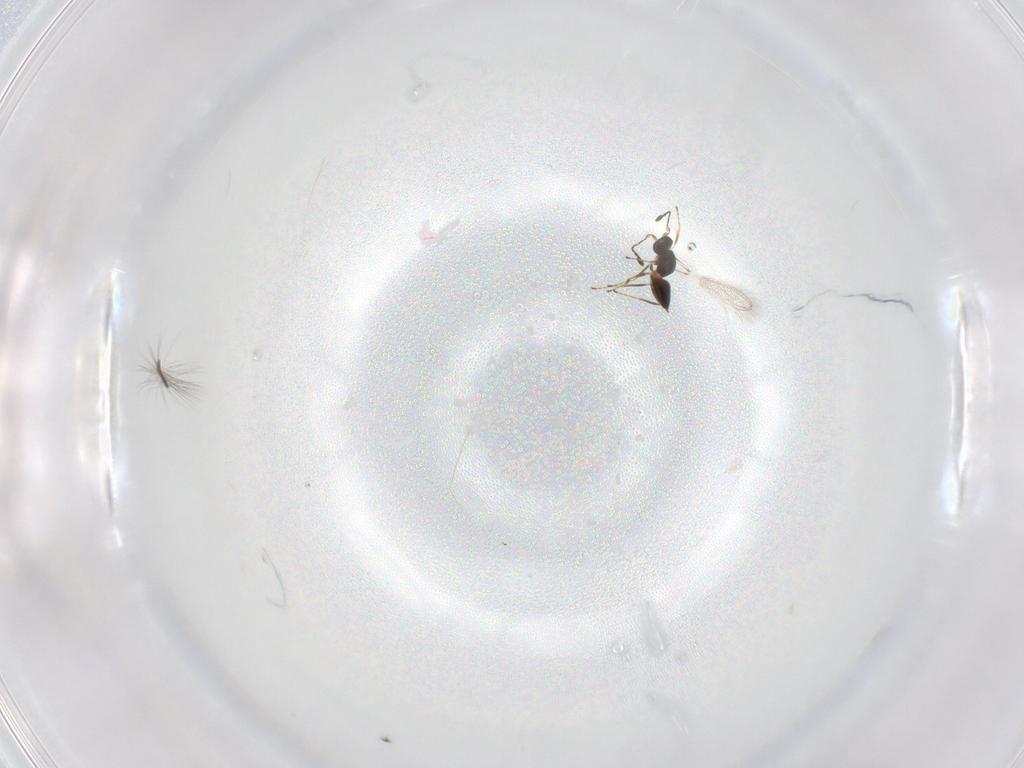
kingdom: Animalia
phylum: Arthropoda
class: Insecta
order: Hymenoptera
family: Mymaridae
